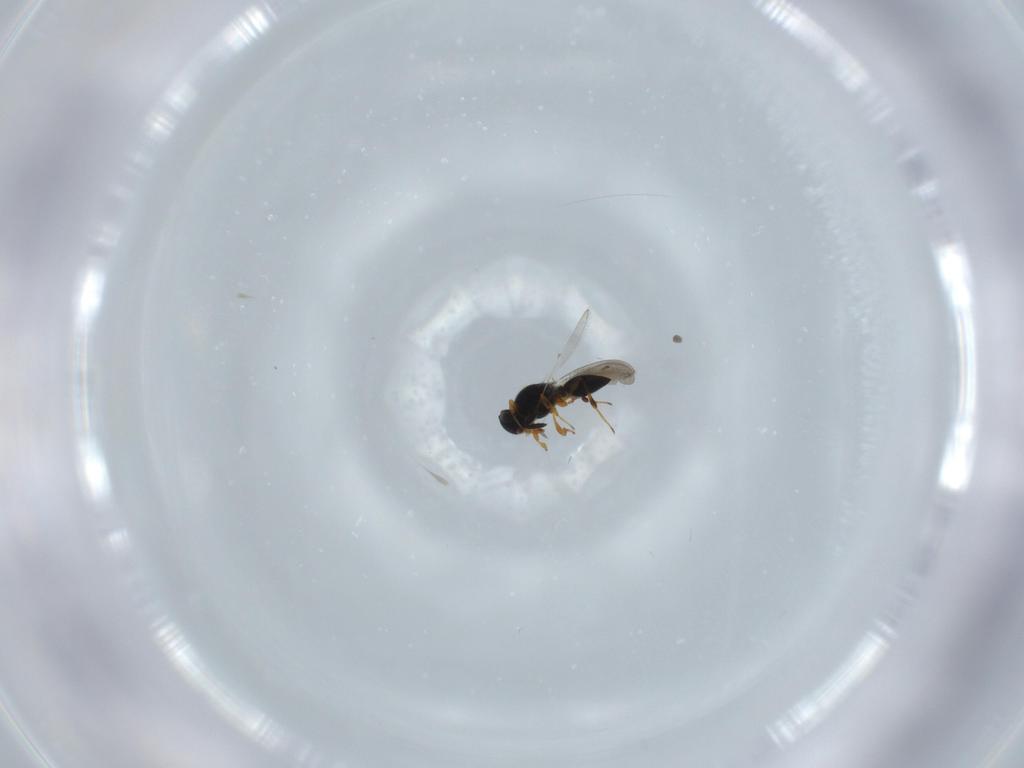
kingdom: Animalia
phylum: Arthropoda
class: Insecta
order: Hymenoptera
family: Platygastridae
